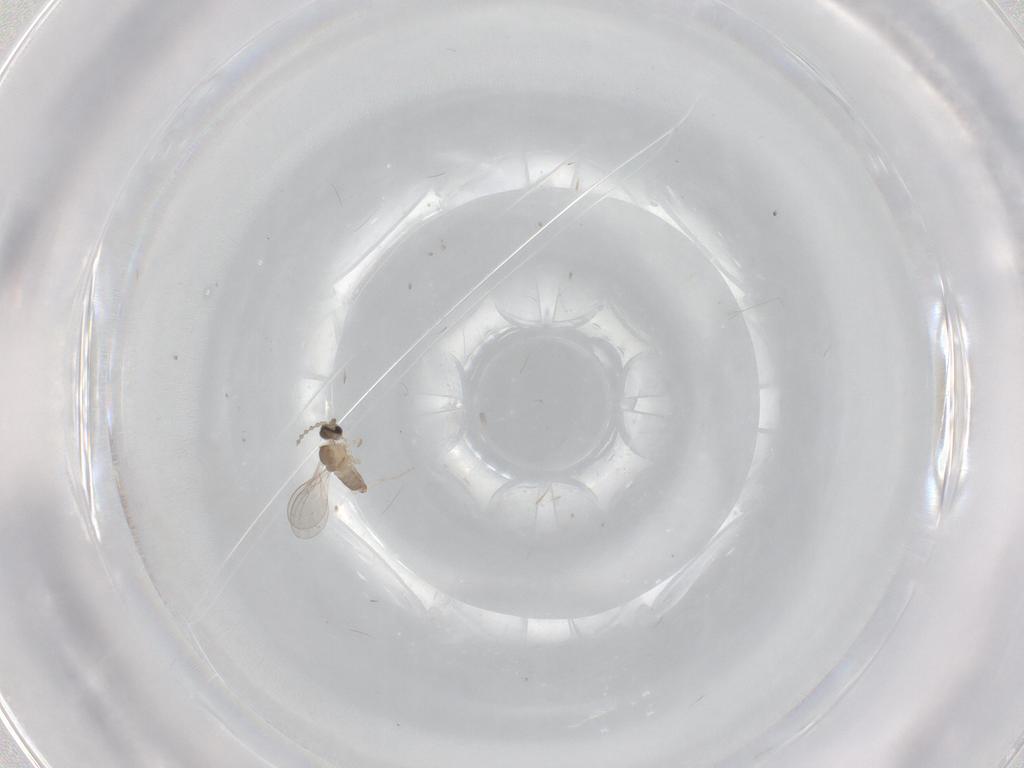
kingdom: Animalia
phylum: Arthropoda
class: Insecta
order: Diptera
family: Cecidomyiidae
